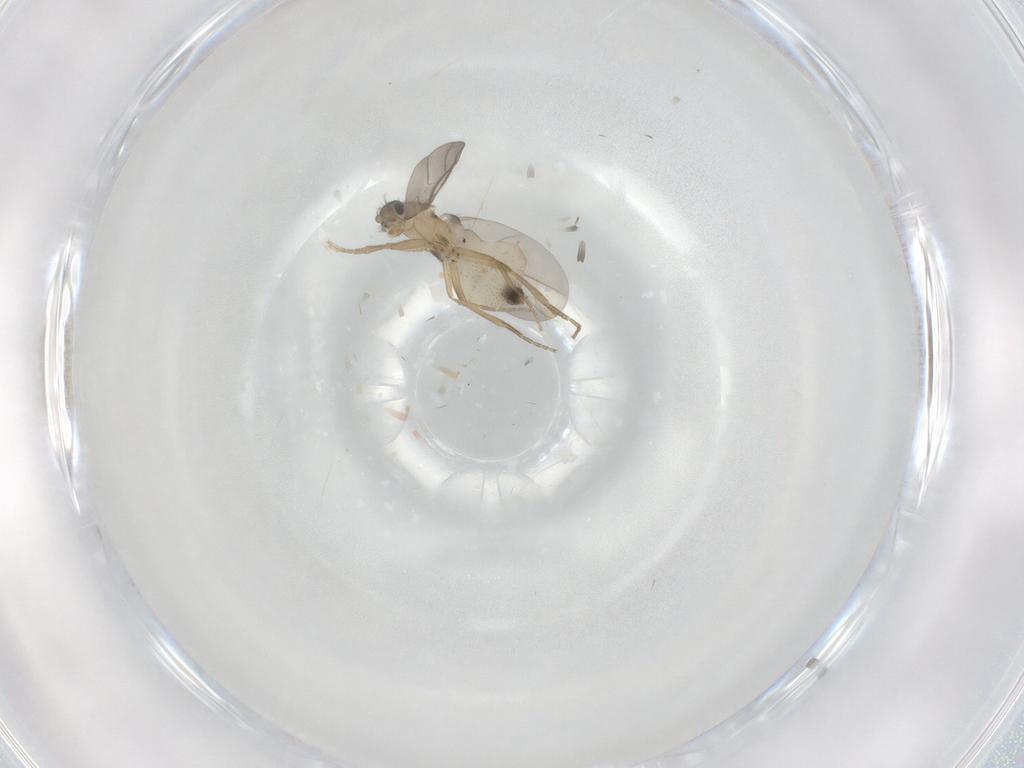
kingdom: Animalia
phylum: Arthropoda
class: Insecta
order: Diptera
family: Phoridae
